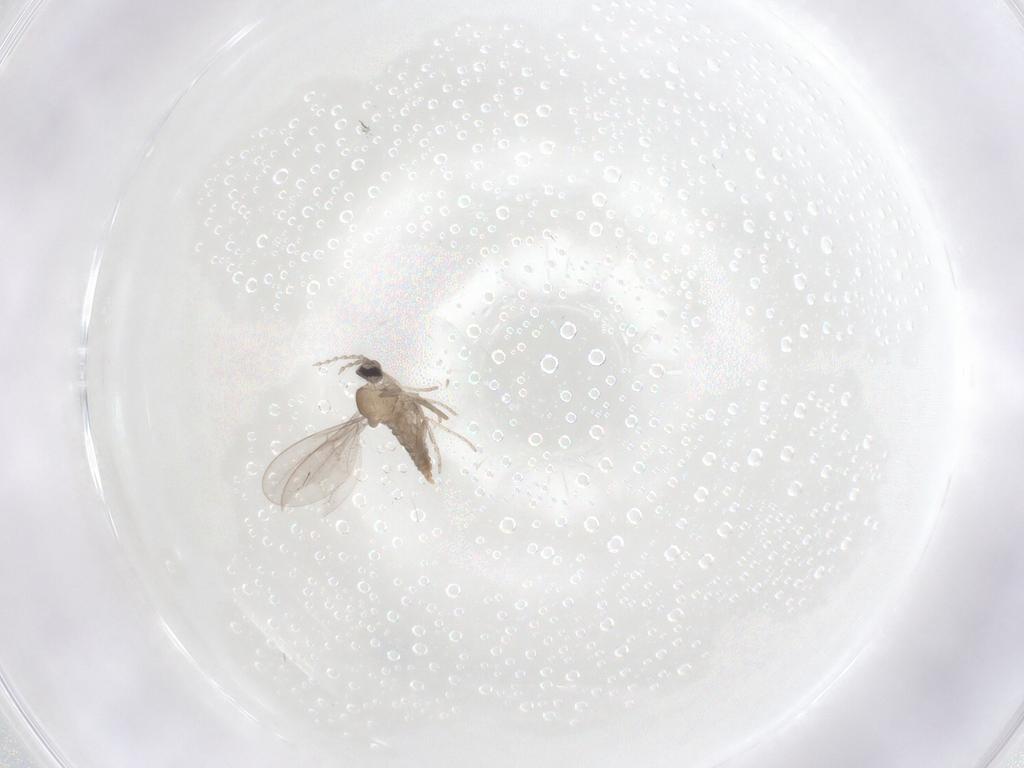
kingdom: Animalia
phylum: Arthropoda
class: Insecta
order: Diptera
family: Cecidomyiidae
